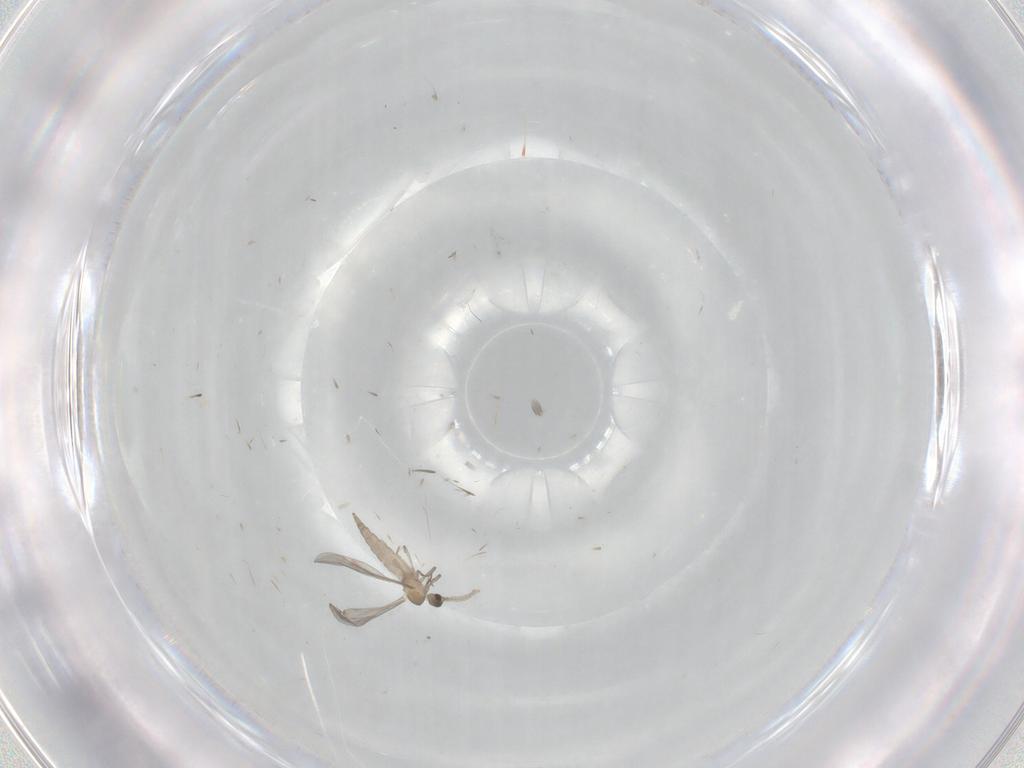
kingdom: Animalia
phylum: Arthropoda
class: Insecta
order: Diptera
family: Cecidomyiidae
